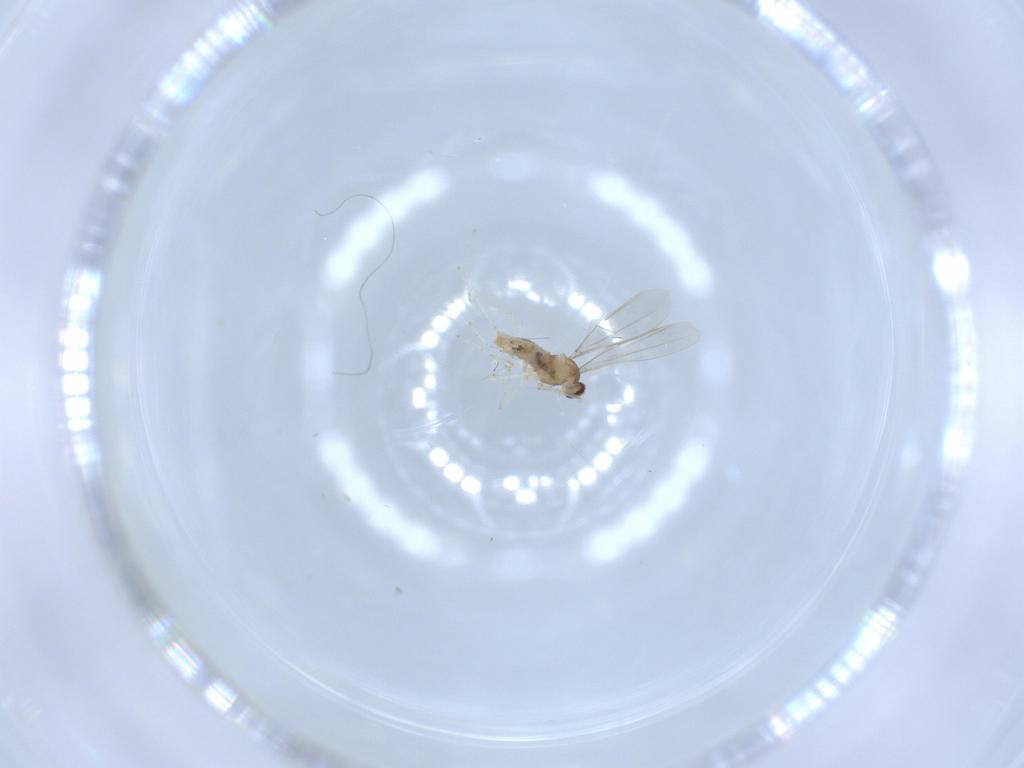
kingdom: Animalia
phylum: Arthropoda
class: Insecta
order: Diptera
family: Cecidomyiidae
